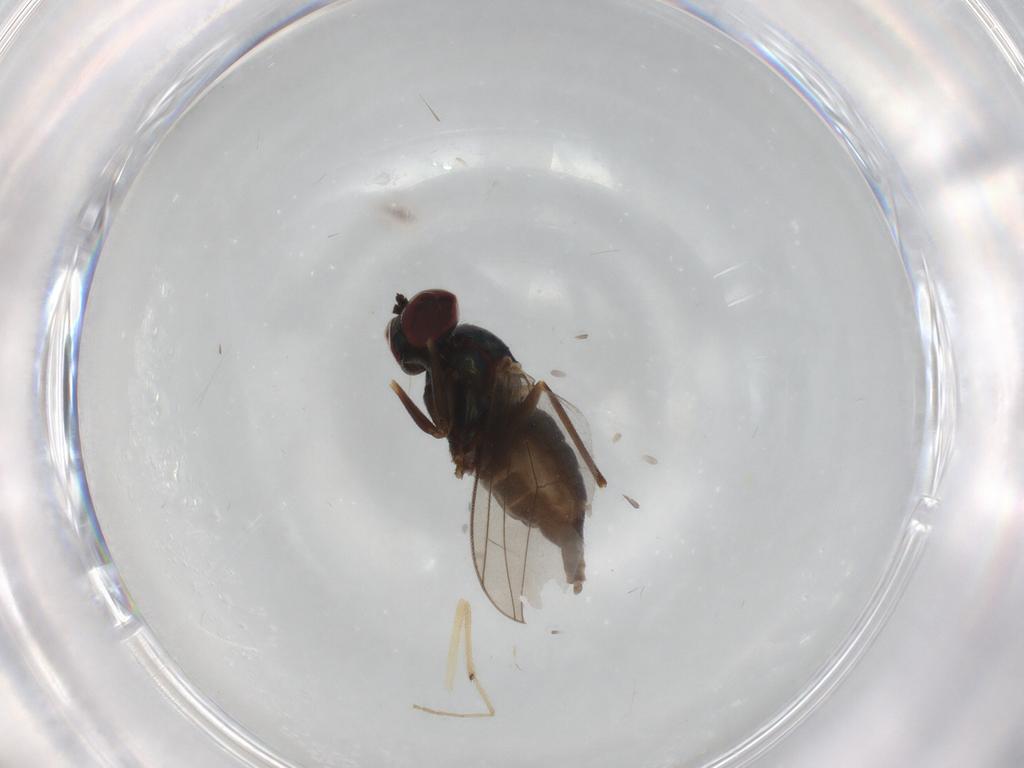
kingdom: Animalia
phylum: Arthropoda
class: Insecta
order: Diptera
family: Dolichopodidae
